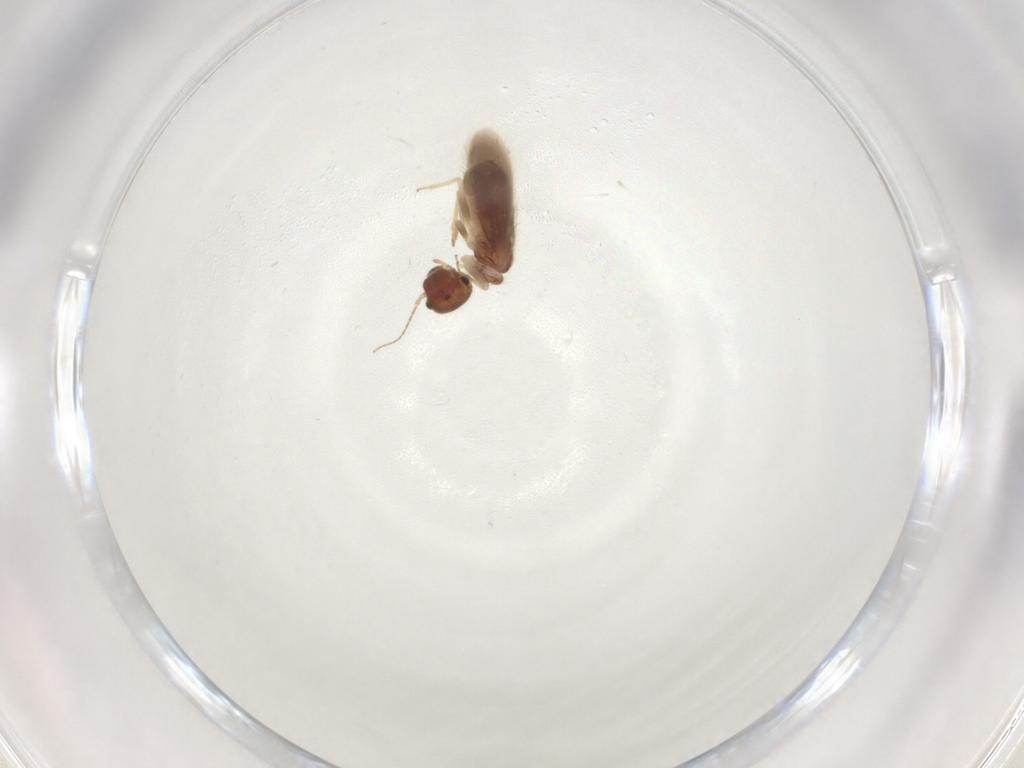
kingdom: Animalia
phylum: Arthropoda
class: Insecta
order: Psocodea
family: Archipsocidae
